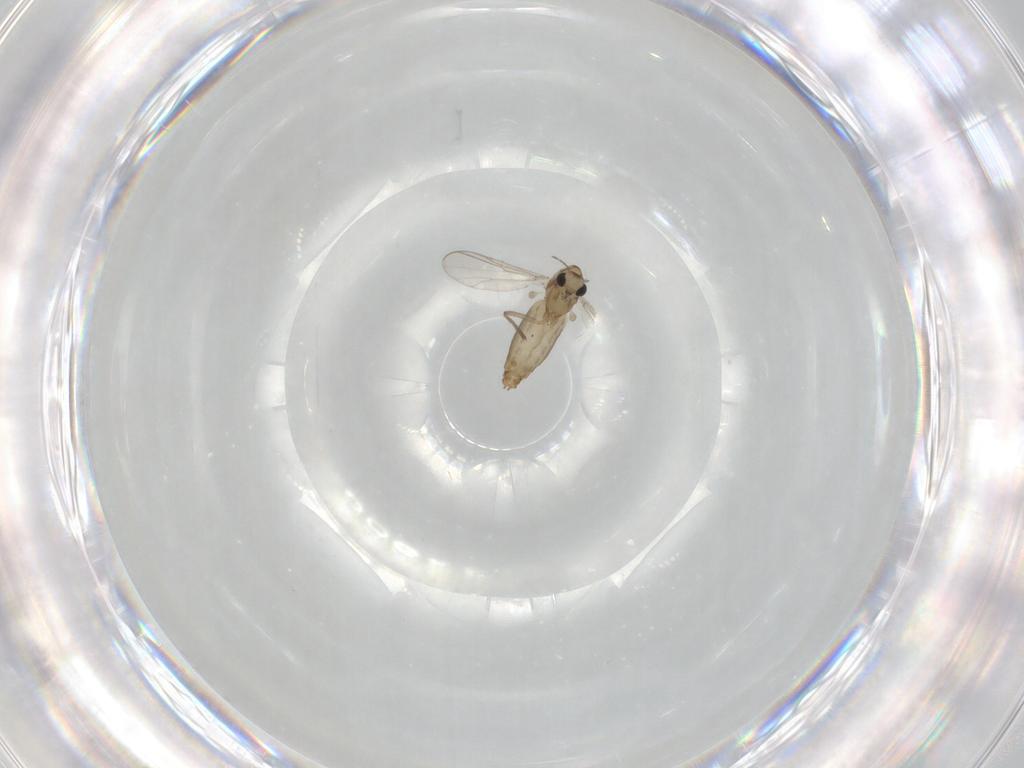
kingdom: Animalia
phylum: Arthropoda
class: Insecta
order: Diptera
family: Chironomidae
